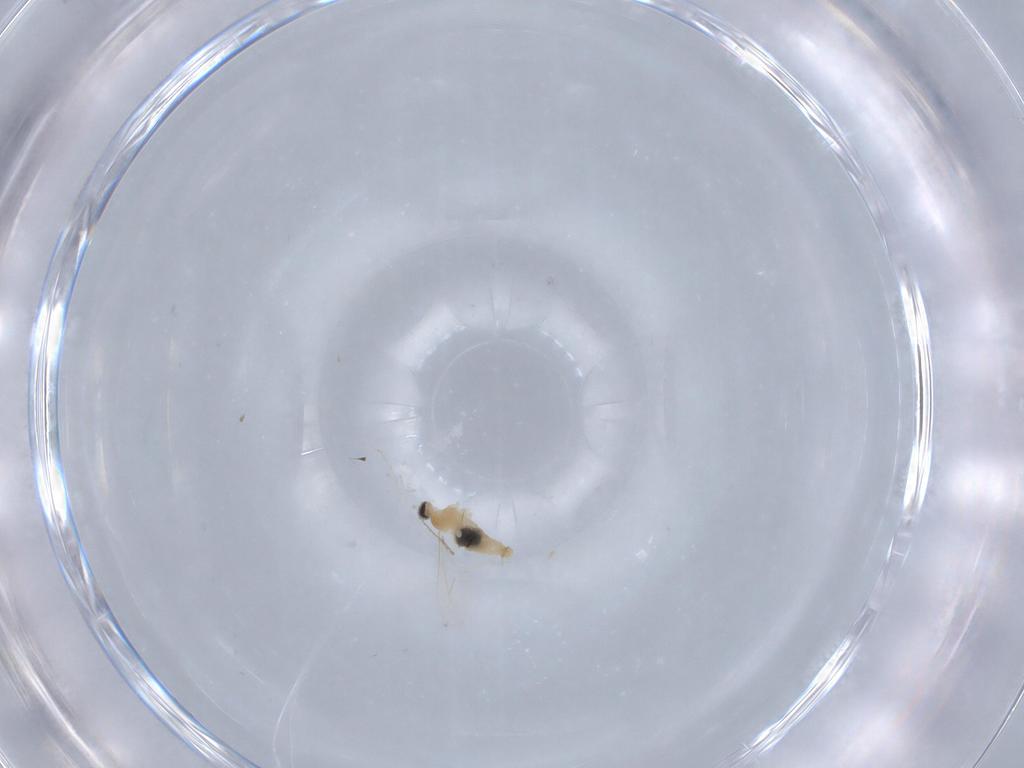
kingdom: Animalia
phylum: Arthropoda
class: Insecta
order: Diptera
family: Cecidomyiidae
